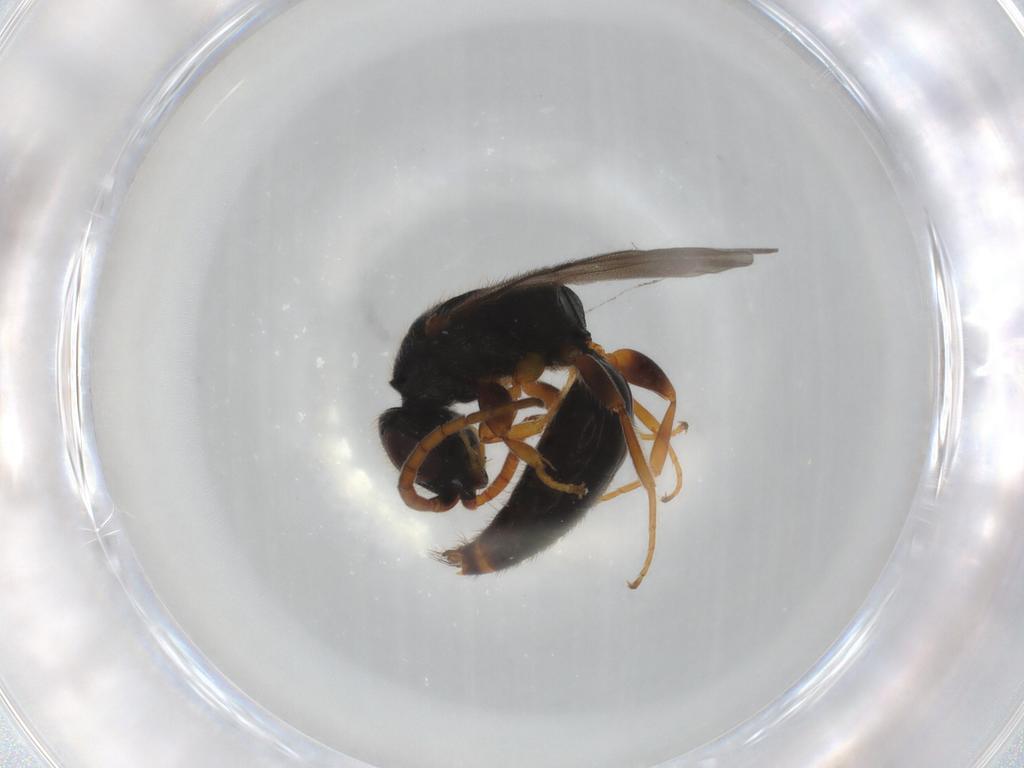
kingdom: Animalia
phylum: Arthropoda
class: Insecta
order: Hymenoptera
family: Bethylidae
